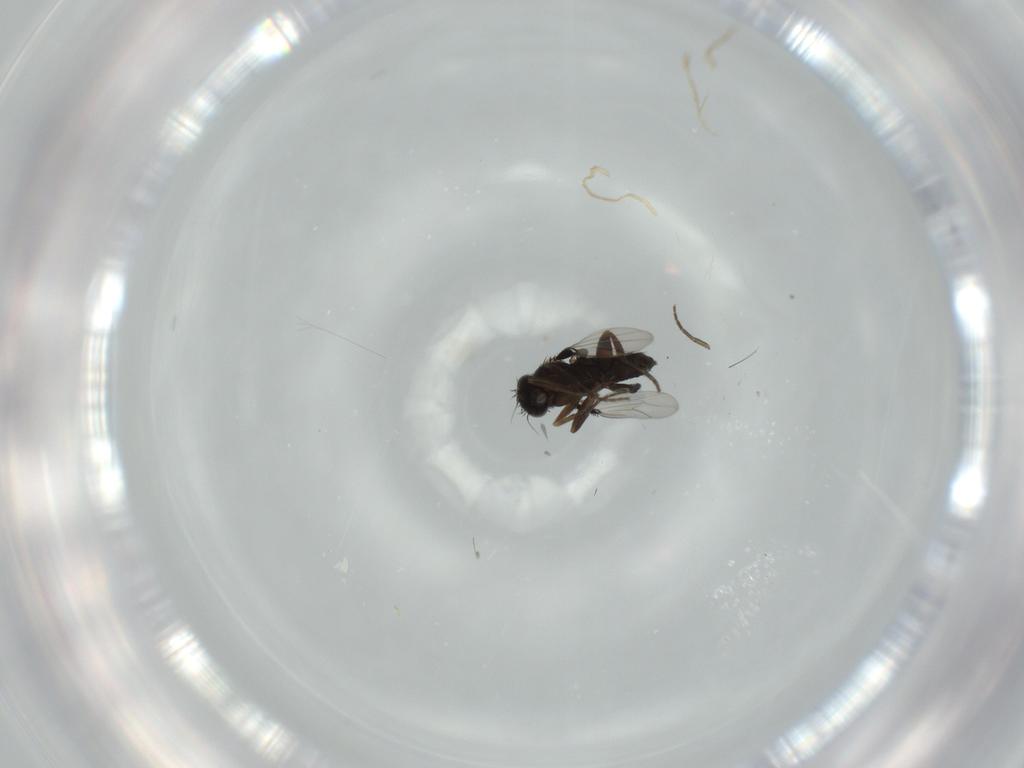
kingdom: Animalia
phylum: Arthropoda
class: Insecta
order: Diptera
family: Phoridae
